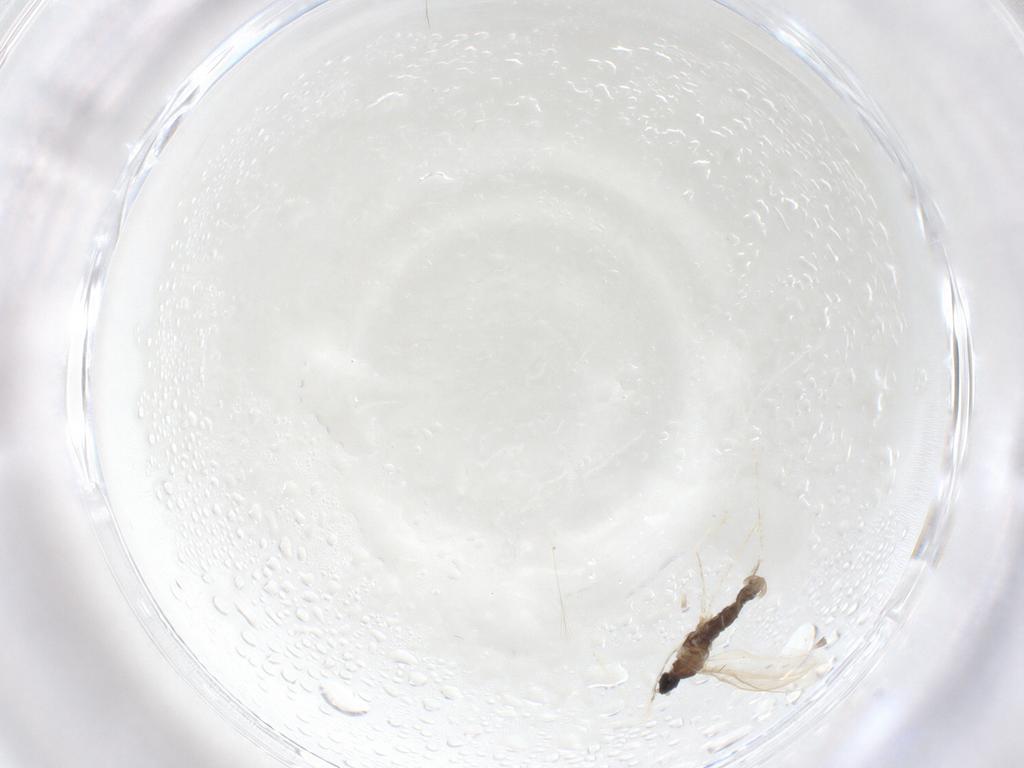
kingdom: Animalia
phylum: Arthropoda
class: Insecta
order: Diptera
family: Cecidomyiidae
